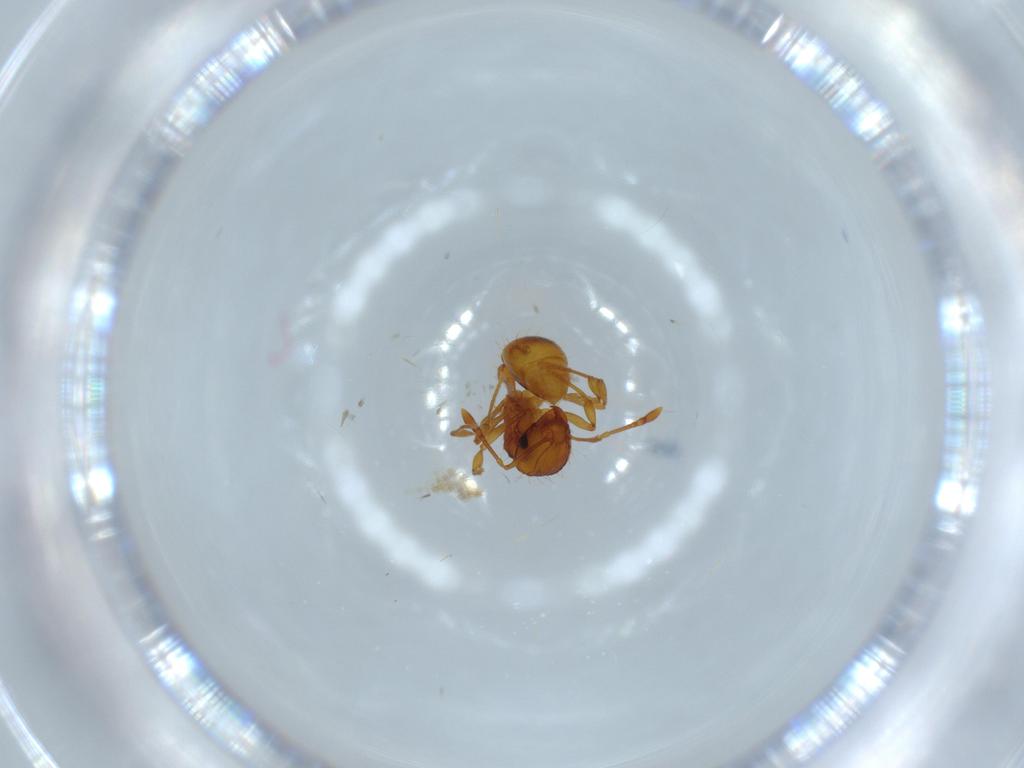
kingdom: Animalia
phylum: Arthropoda
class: Insecta
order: Hymenoptera
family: Formicidae
